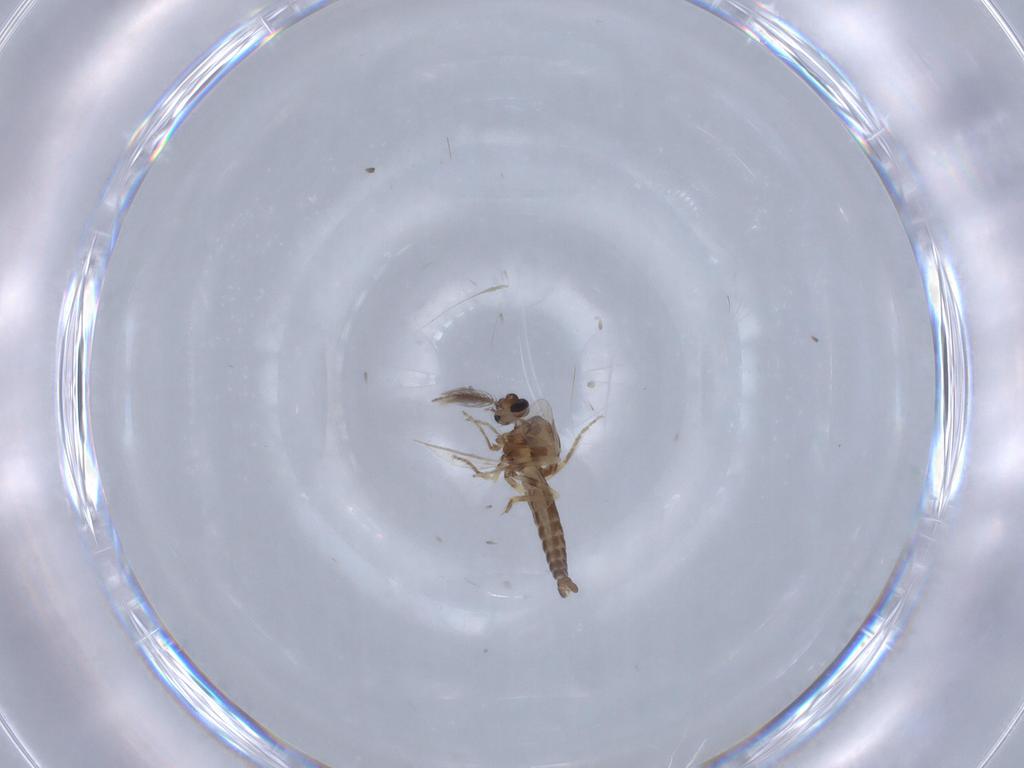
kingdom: Animalia
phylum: Arthropoda
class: Insecta
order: Diptera
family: Ceratopogonidae
